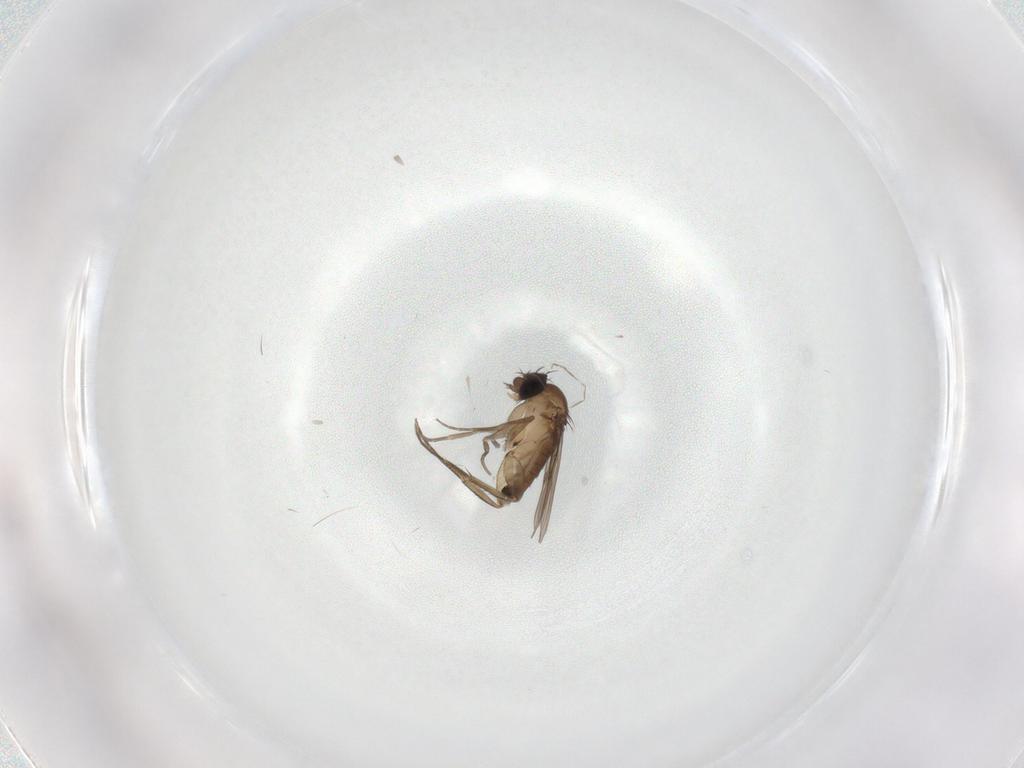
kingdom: Animalia
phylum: Arthropoda
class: Insecta
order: Diptera
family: Phoridae
